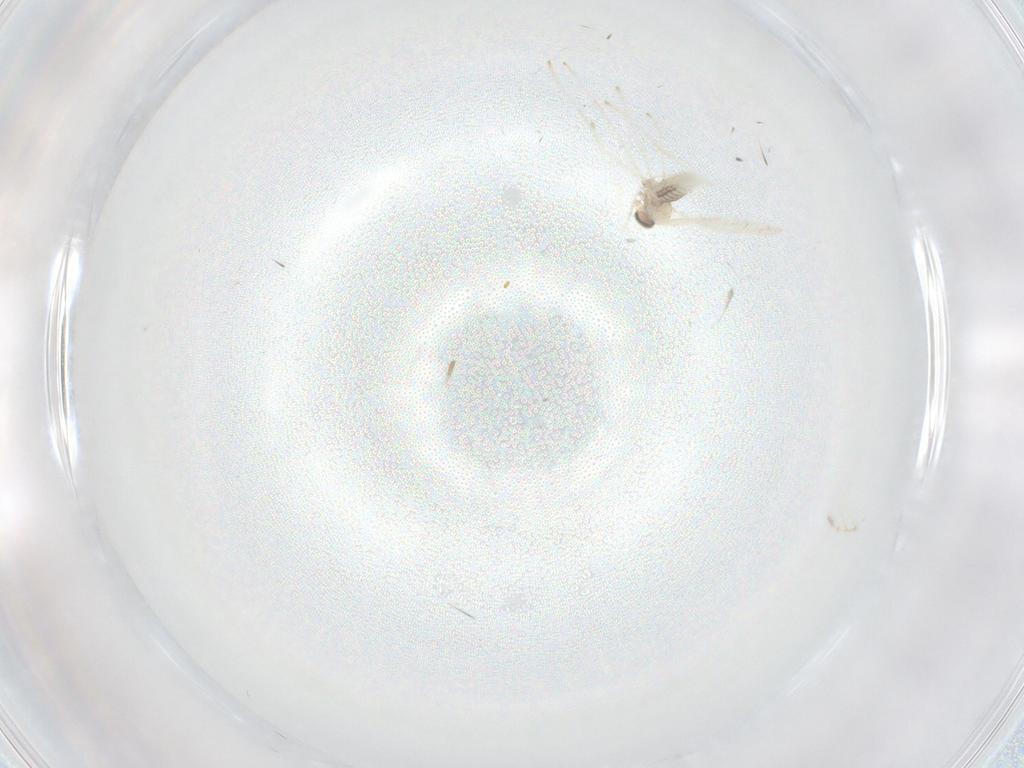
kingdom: Animalia
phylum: Arthropoda
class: Insecta
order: Diptera
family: Cecidomyiidae
